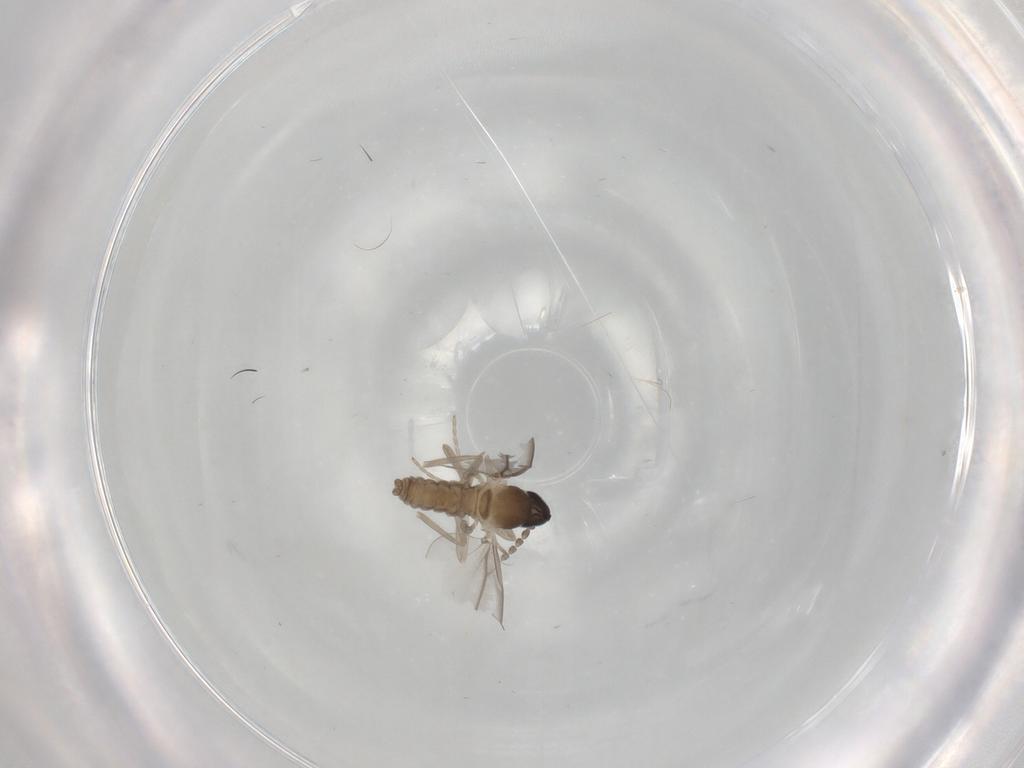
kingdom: Animalia
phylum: Arthropoda
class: Insecta
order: Diptera
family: Cecidomyiidae
